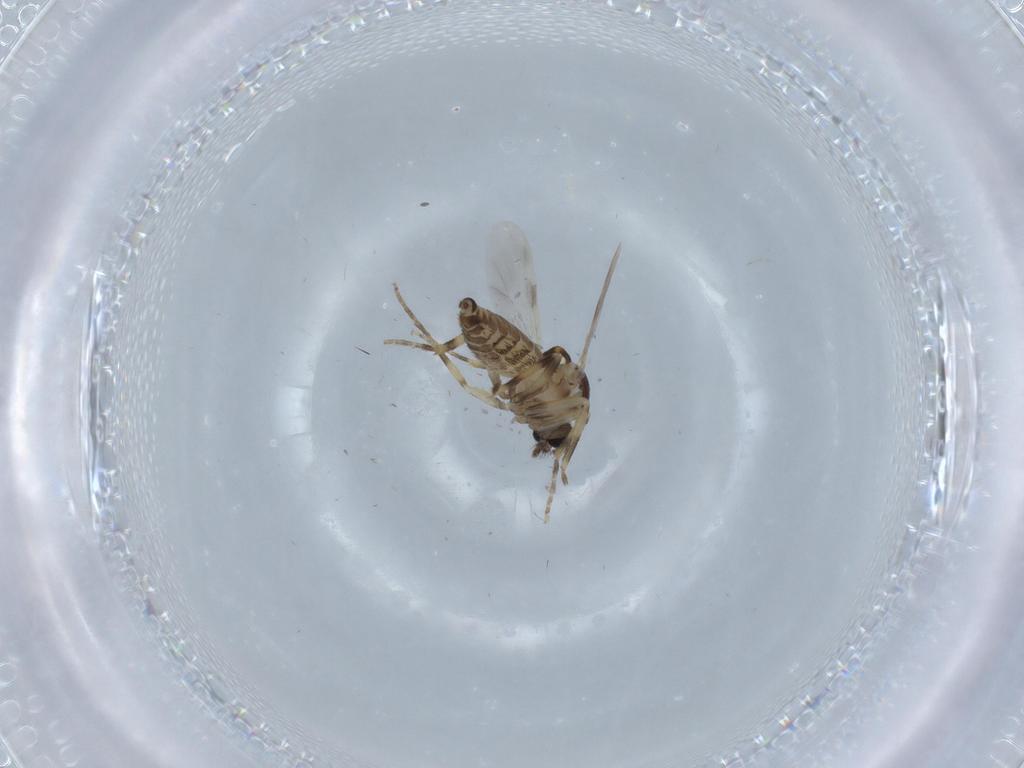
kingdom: Animalia
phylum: Arthropoda
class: Insecta
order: Diptera
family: Ceratopogonidae
